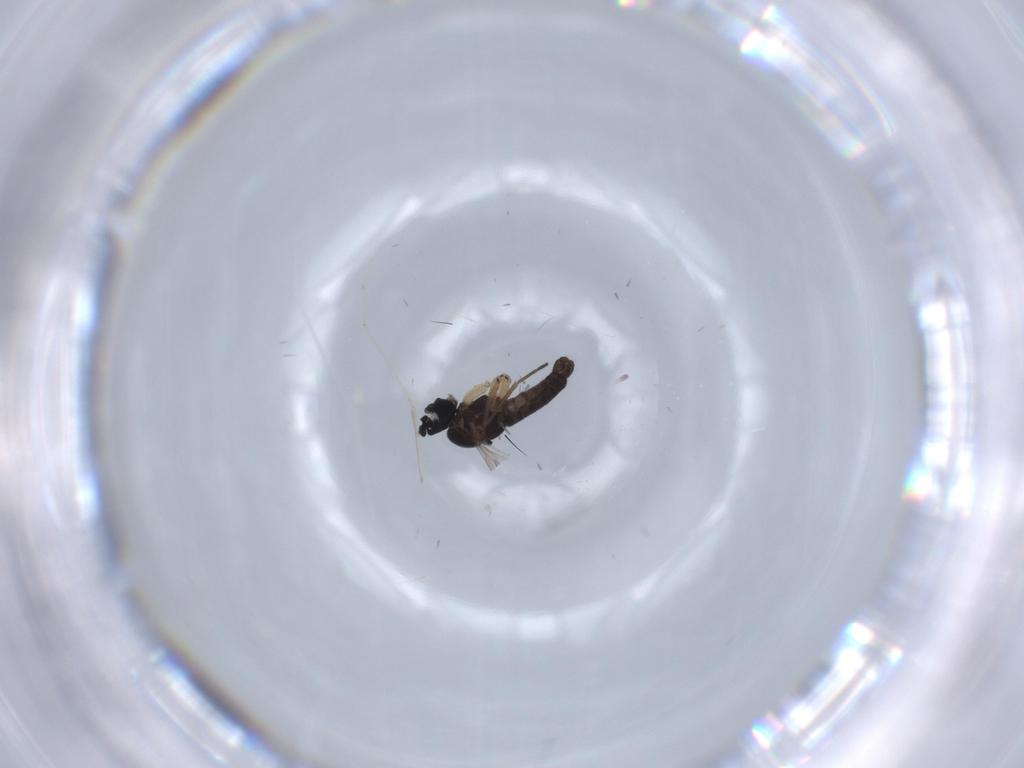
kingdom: Animalia
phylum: Arthropoda
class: Insecta
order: Diptera
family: Sciaridae
